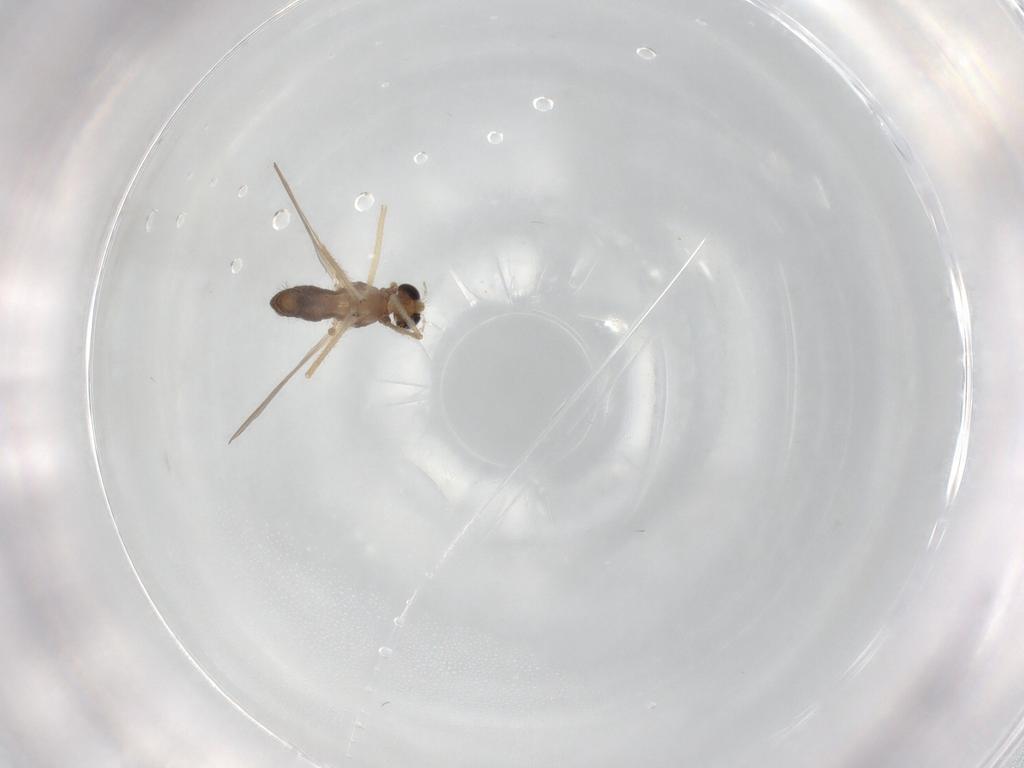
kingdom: Animalia
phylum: Arthropoda
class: Insecta
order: Diptera
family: Chironomidae
